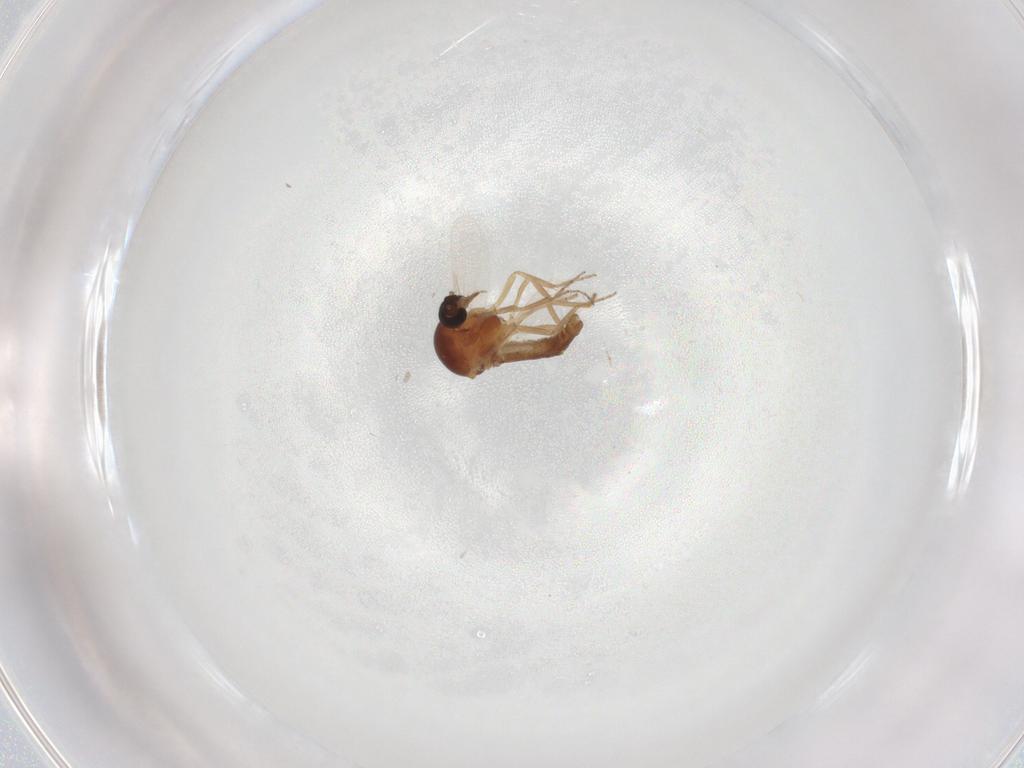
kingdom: Animalia
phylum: Arthropoda
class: Insecta
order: Diptera
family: Ceratopogonidae
